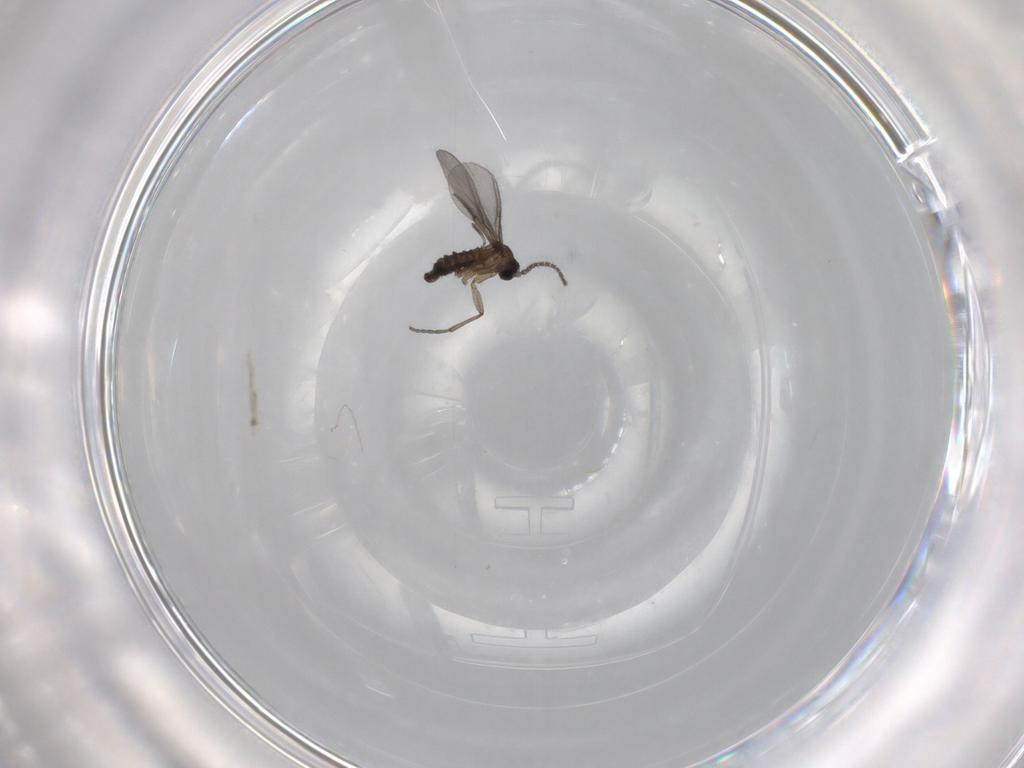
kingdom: Animalia
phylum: Arthropoda
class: Insecta
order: Diptera
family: Sciaridae
